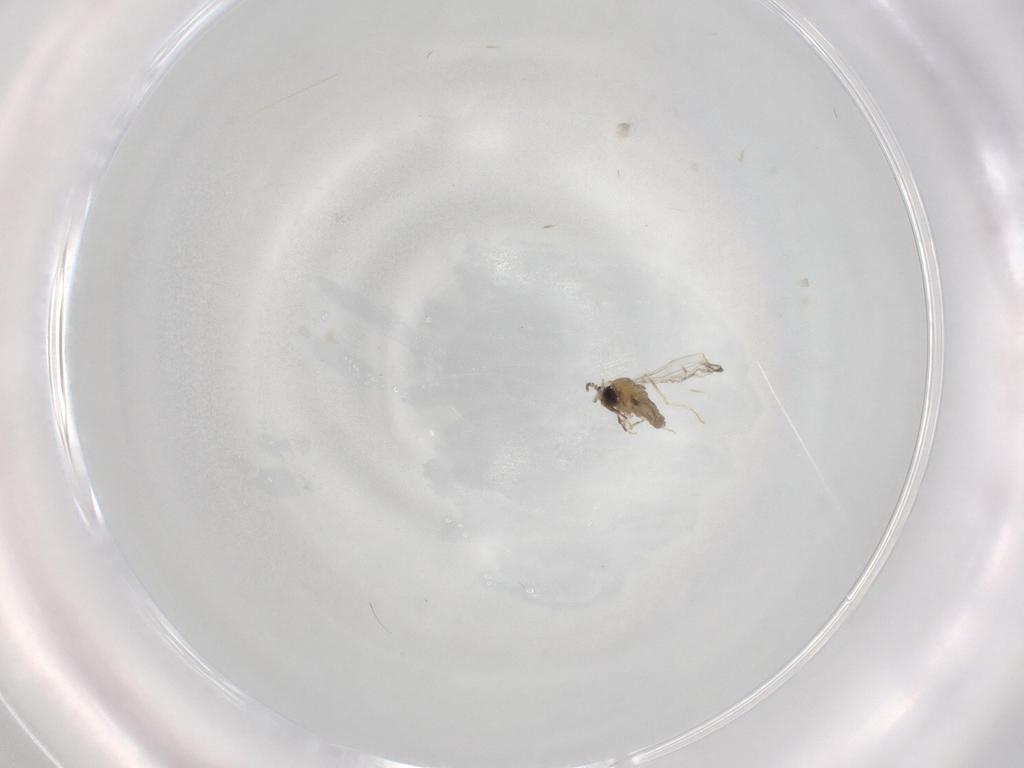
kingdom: Animalia
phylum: Arthropoda
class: Insecta
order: Diptera
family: Cecidomyiidae
